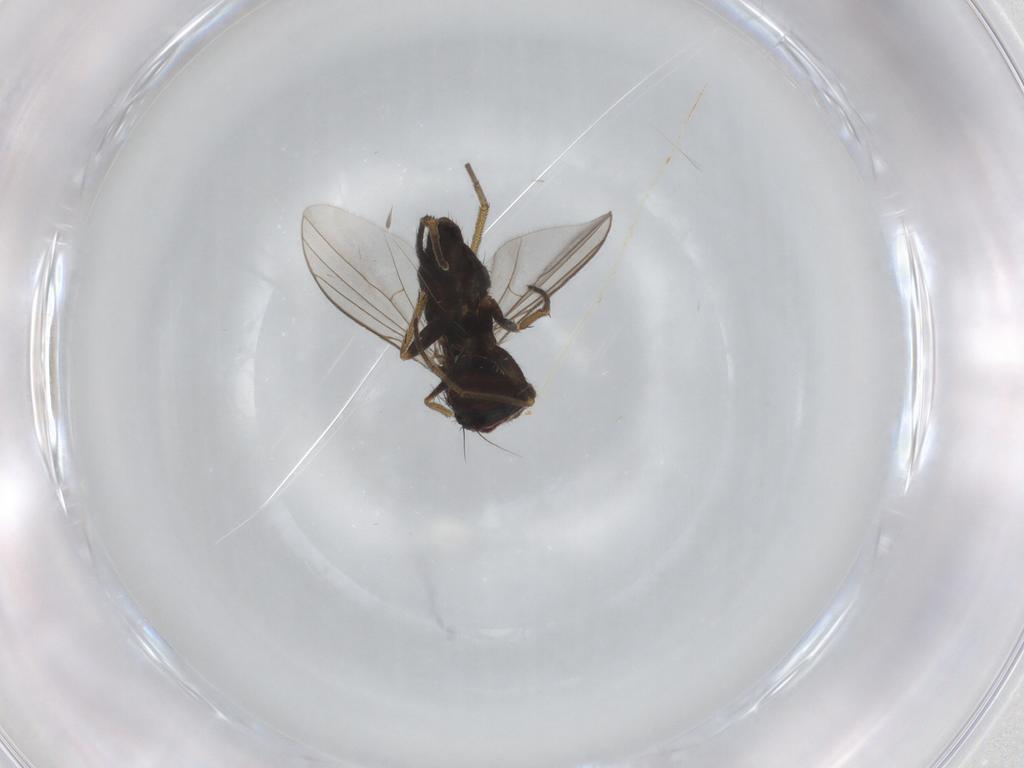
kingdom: Animalia
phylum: Arthropoda
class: Insecta
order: Diptera
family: Dolichopodidae
